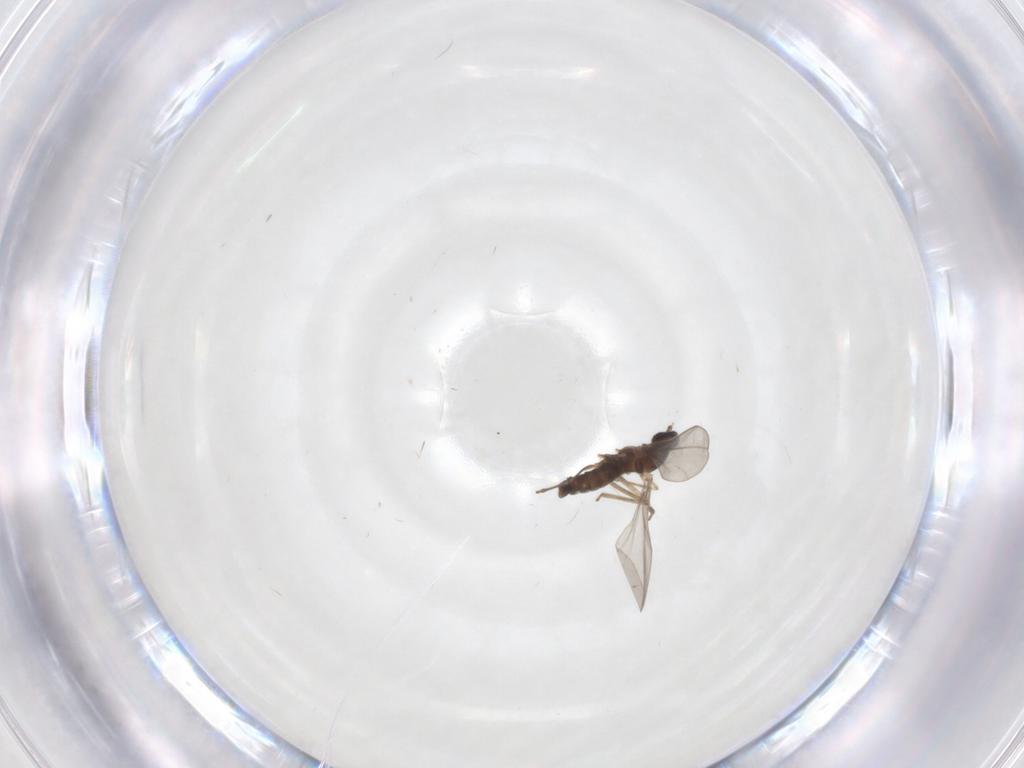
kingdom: Animalia
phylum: Arthropoda
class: Insecta
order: Diptera
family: Cecidomyiidae
